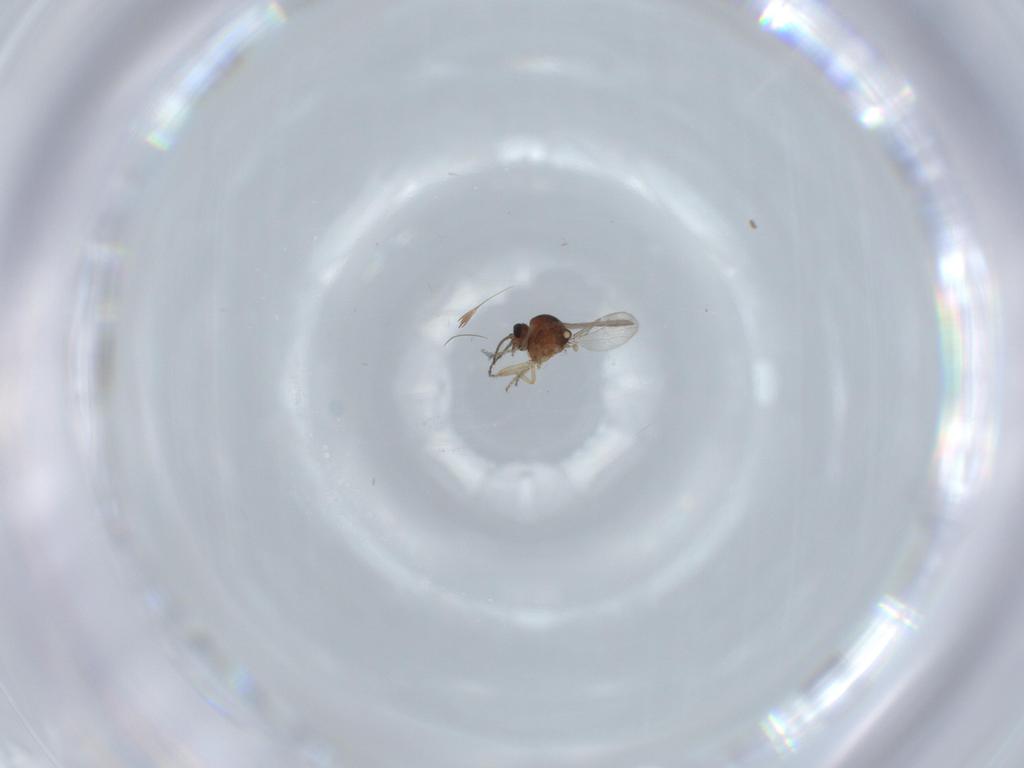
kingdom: Animalia
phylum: Arthropoda
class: Insecta
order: Diptera
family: Ceratopogonidae
